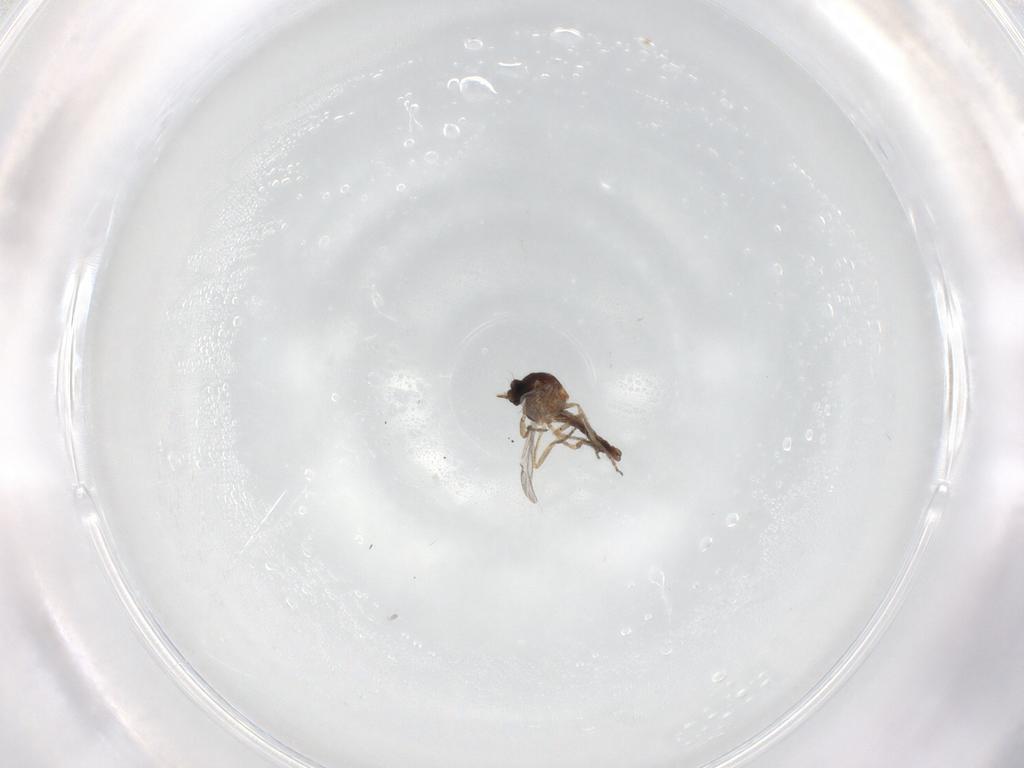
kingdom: Animalia
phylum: Arthropoda
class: Insecta
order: Diptera
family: Ceratopogonidae
